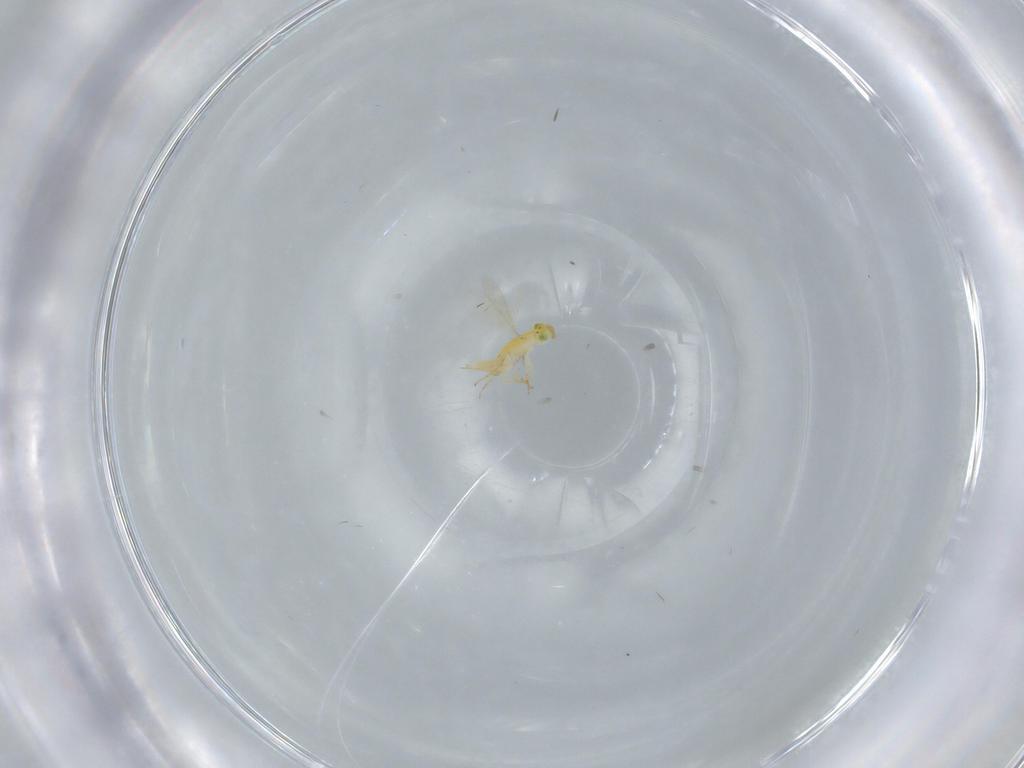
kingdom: Animalia
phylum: Arthropoda
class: Insecta
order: Hymenoptera
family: Aphelinidae
